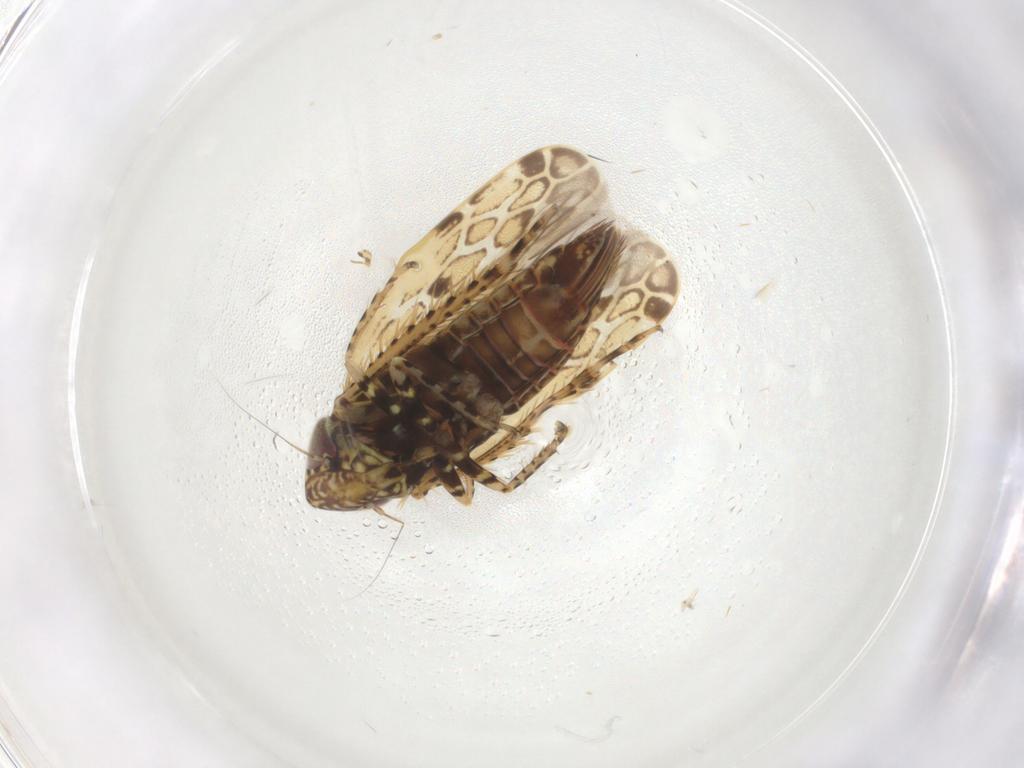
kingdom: Animalia
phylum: Arthropoda
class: Insecta
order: Hemiptera
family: Cicadellidae
